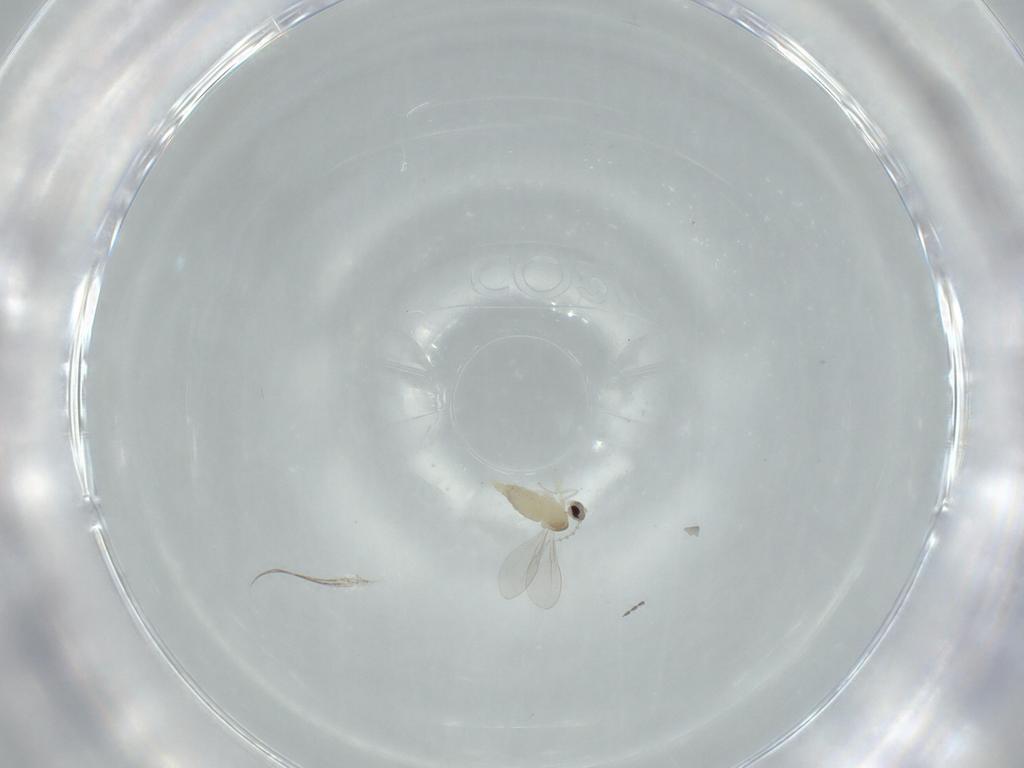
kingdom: Animalia
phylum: Arthropoda
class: Insecta
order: Diptera
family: Cecidomyiidae
